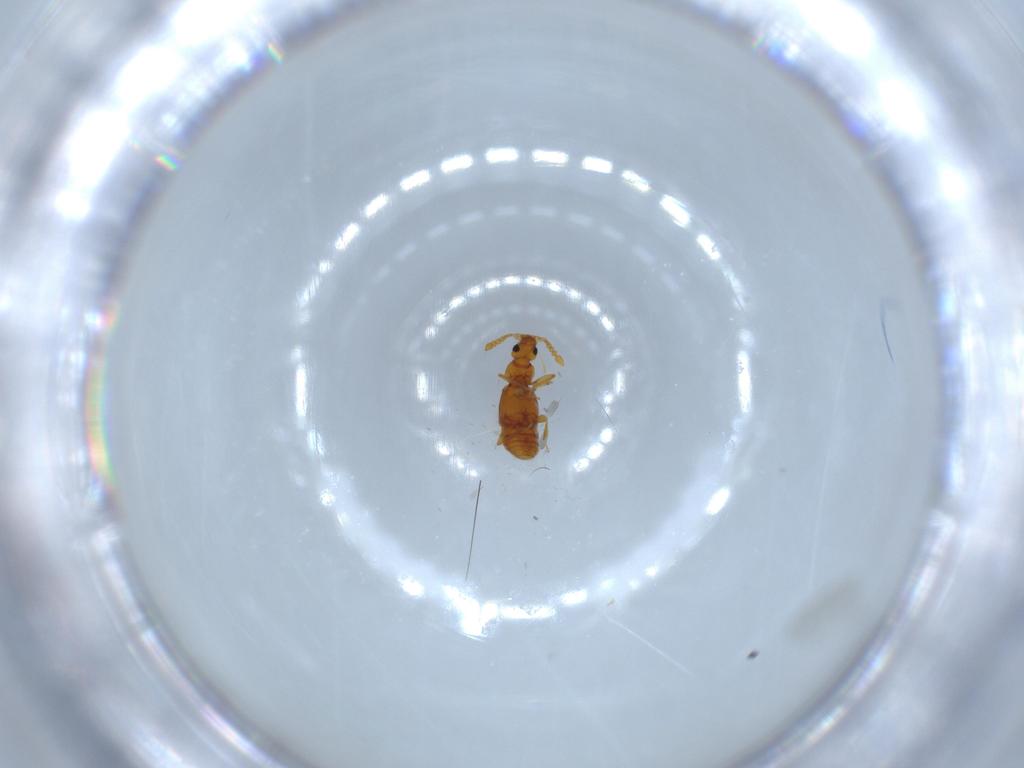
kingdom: Animalia
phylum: Arthropoda
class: Insecta
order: Coleoptera
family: Staphylinidae
